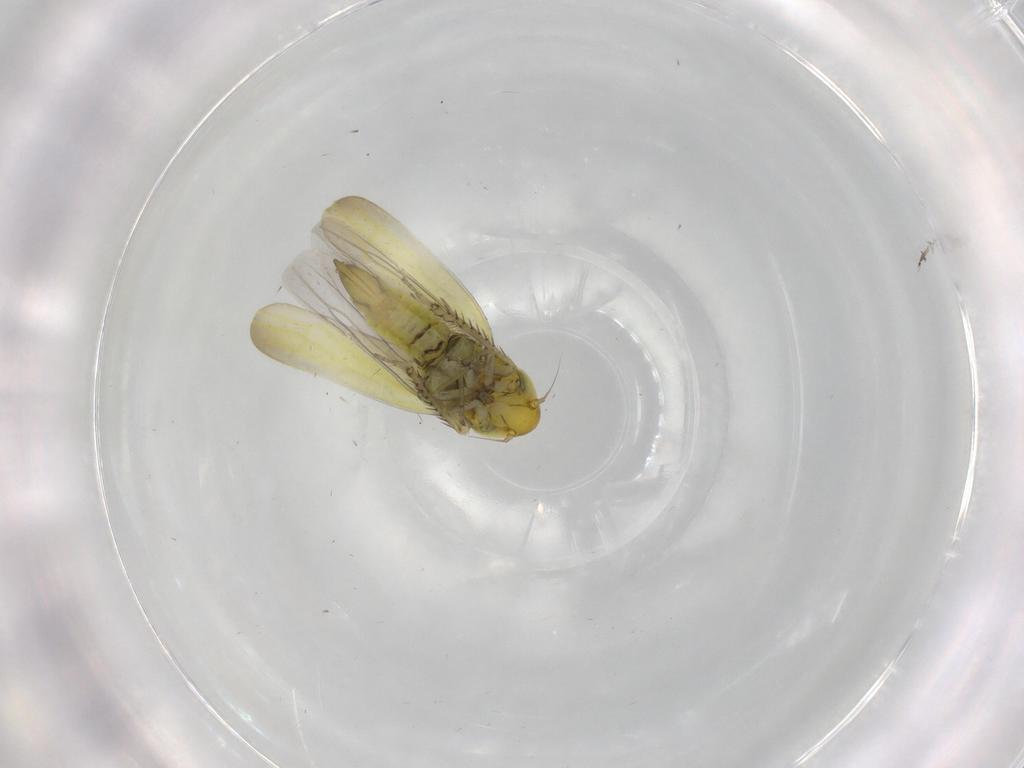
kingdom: Animalia
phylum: Arthropoda
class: Insecta
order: Hemiptera
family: Cicadellidae
